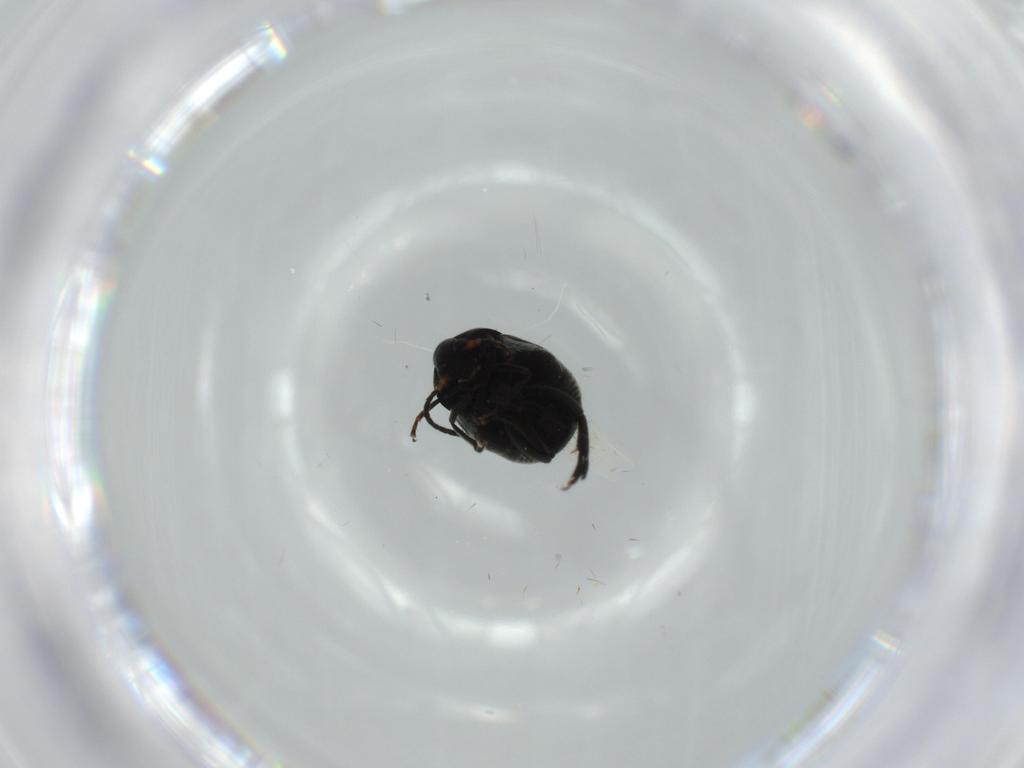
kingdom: Animalia
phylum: Arthropoda
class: Insecta
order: Coleoptera
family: Chrysomelidae
